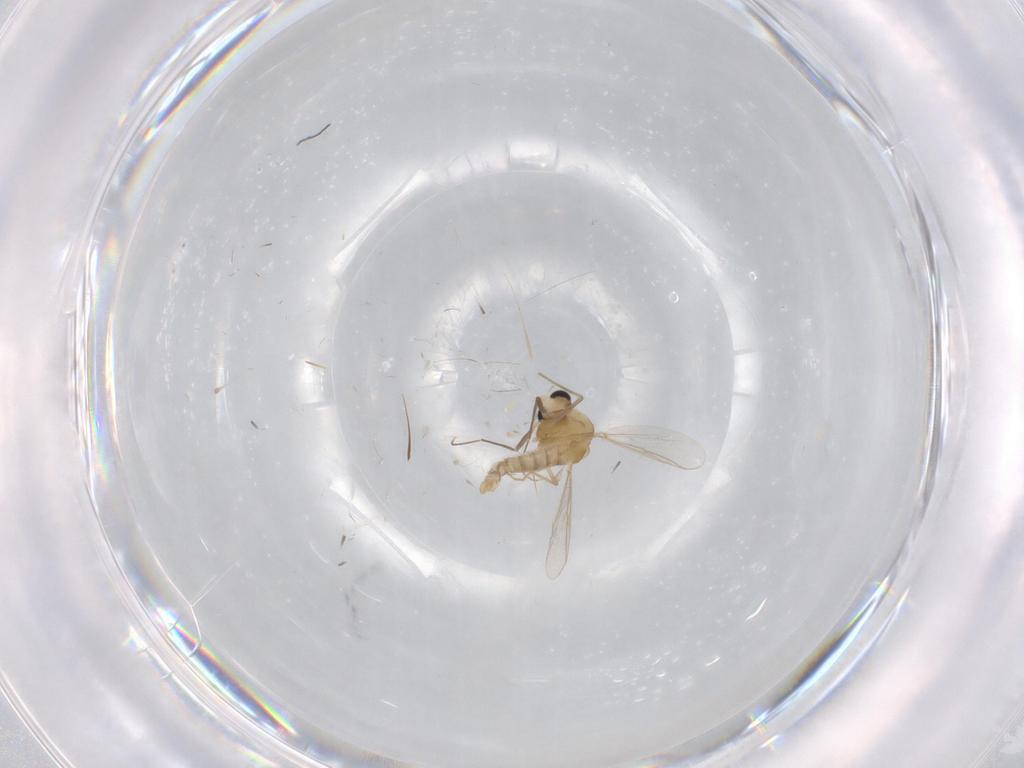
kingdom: Animalia
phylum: Arthropoda
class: Insecta
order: Diptera
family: Chironomidae
